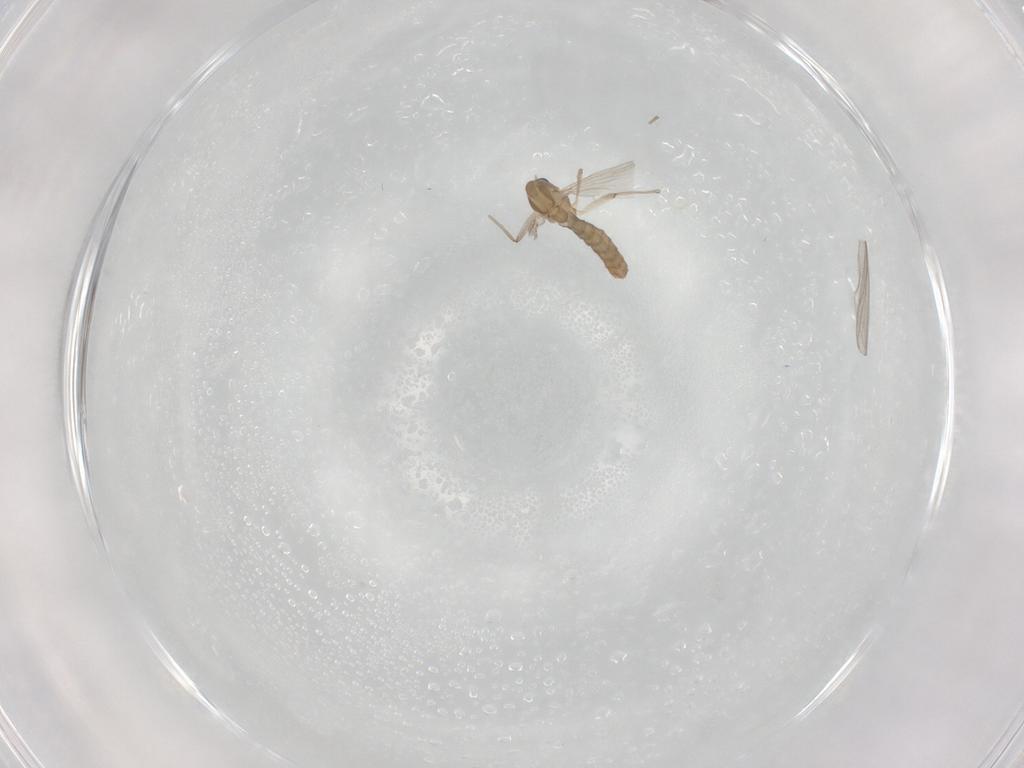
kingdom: Animalia
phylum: Arthropoda
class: Insecta
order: Diptera
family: Chironomidae
